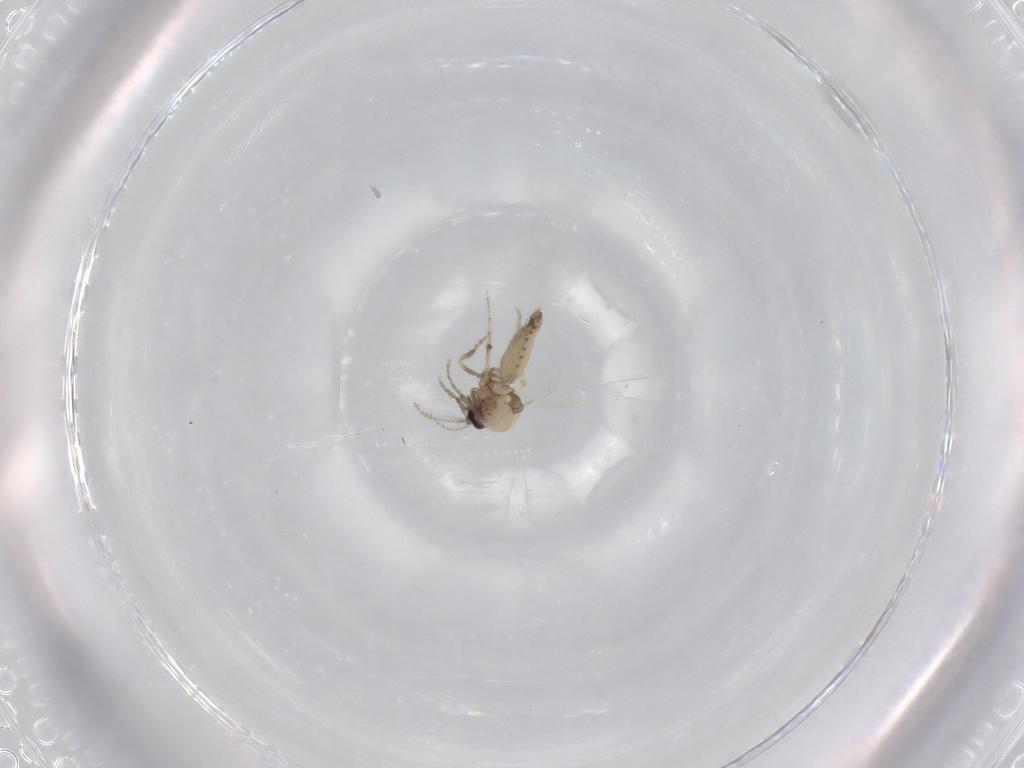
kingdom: Animalia
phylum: Arthropoda
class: Insecta
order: Diptera
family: Ceratopogonidae
